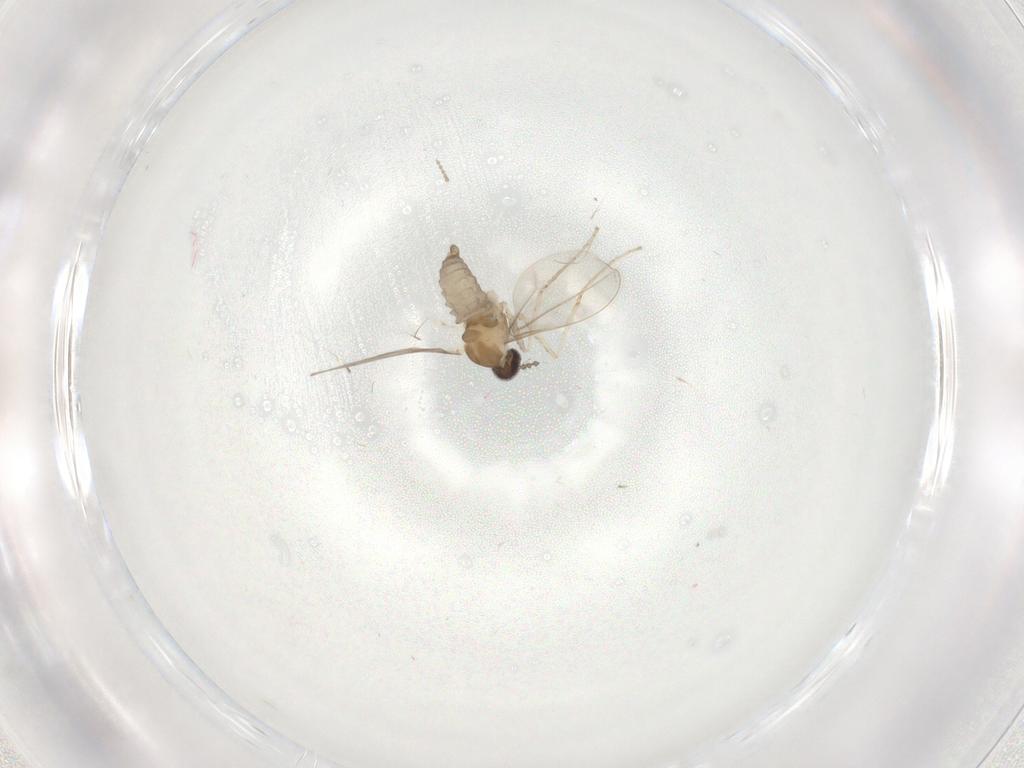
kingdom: Animalia
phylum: Arthropoda
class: Insecta
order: Diptera
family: Cecidomyiidae
